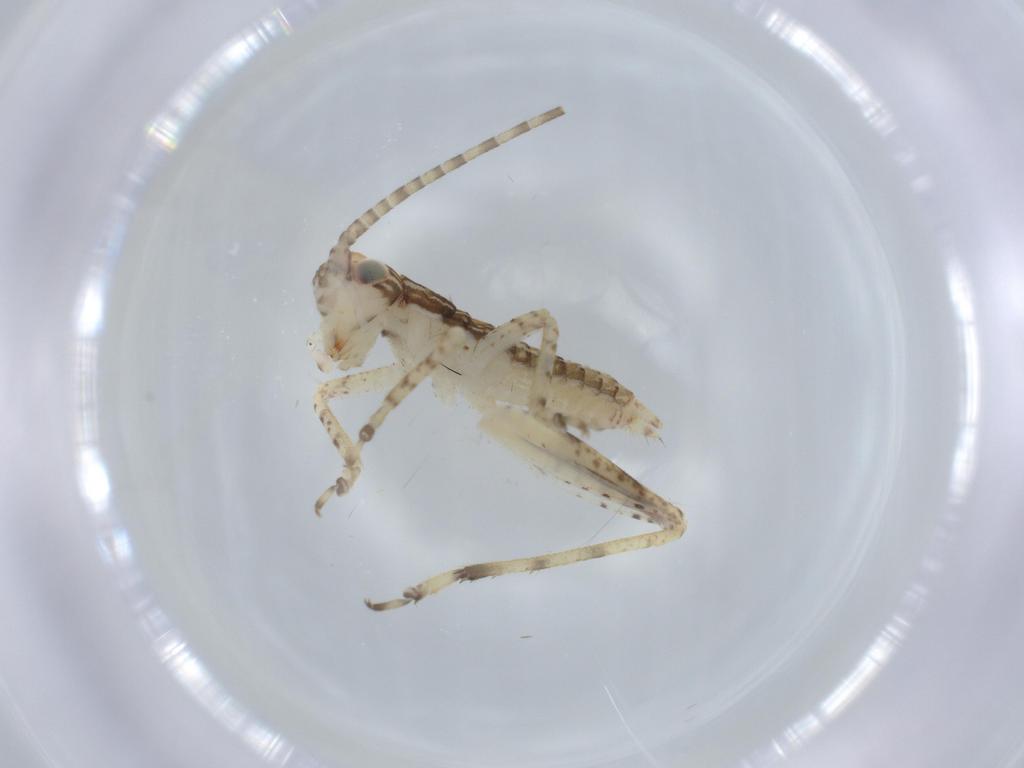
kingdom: Animalia
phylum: Arthropoda
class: Insecta
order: Orthoptera
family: Gryllidae
